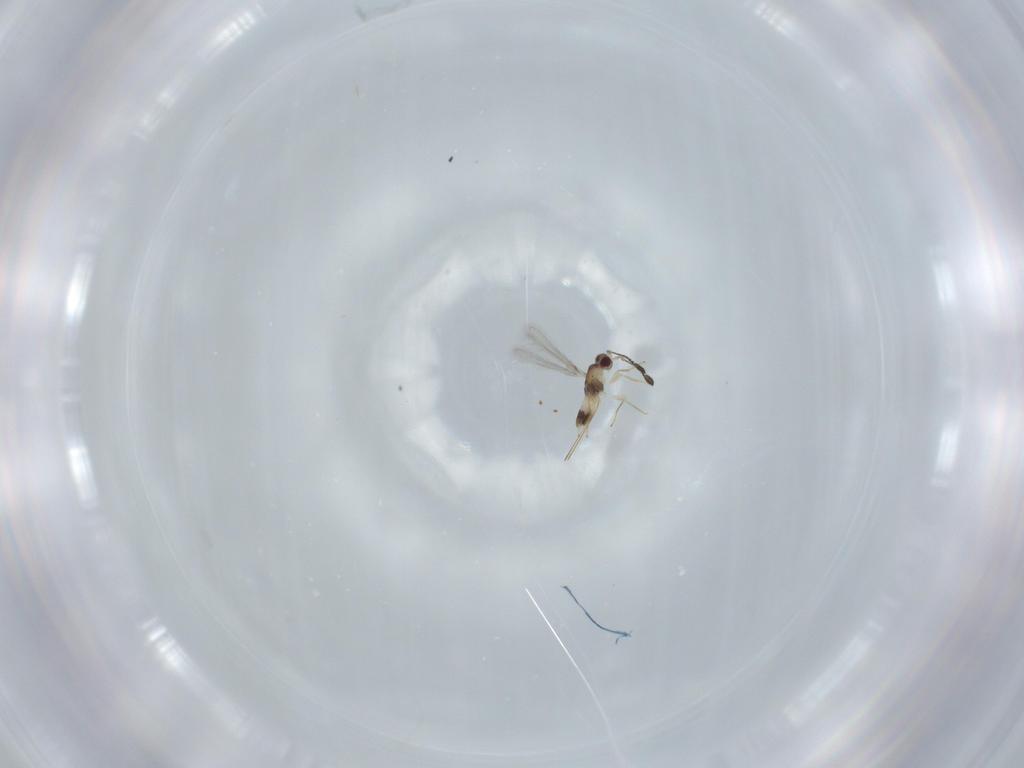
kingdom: Animalia
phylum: Arthropoda
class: Insecta
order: Hymenoptera
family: Mymaridae
